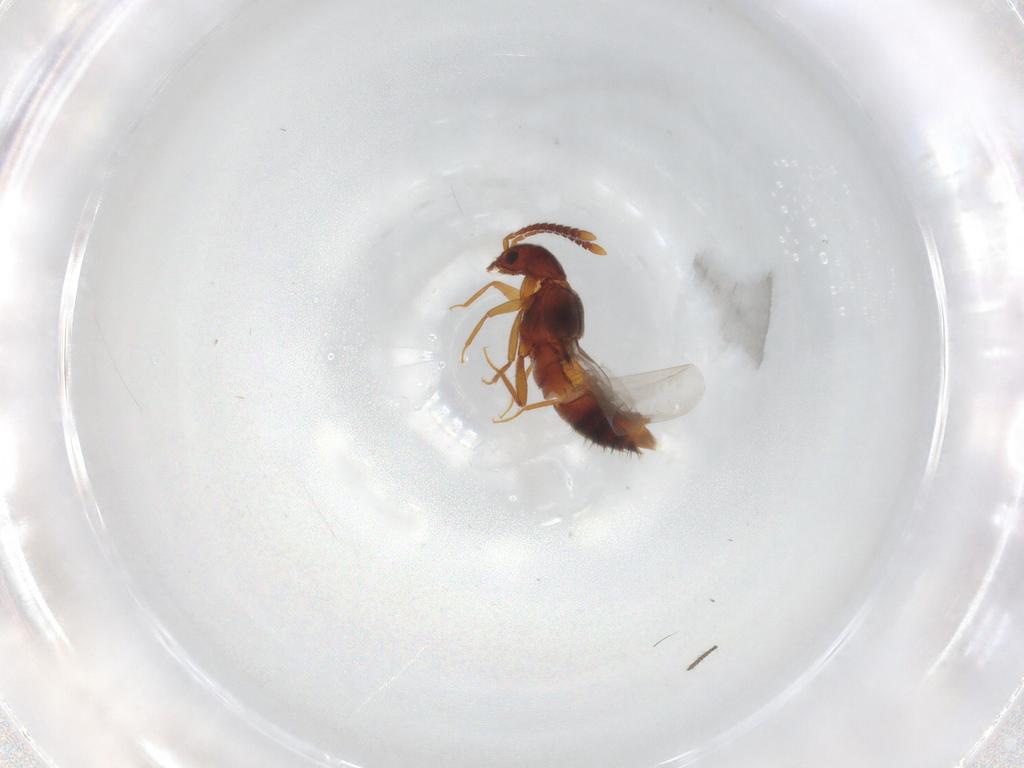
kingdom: Animalia
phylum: Arthropoda
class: Insecta
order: Coleoptera
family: Staphylinidae
